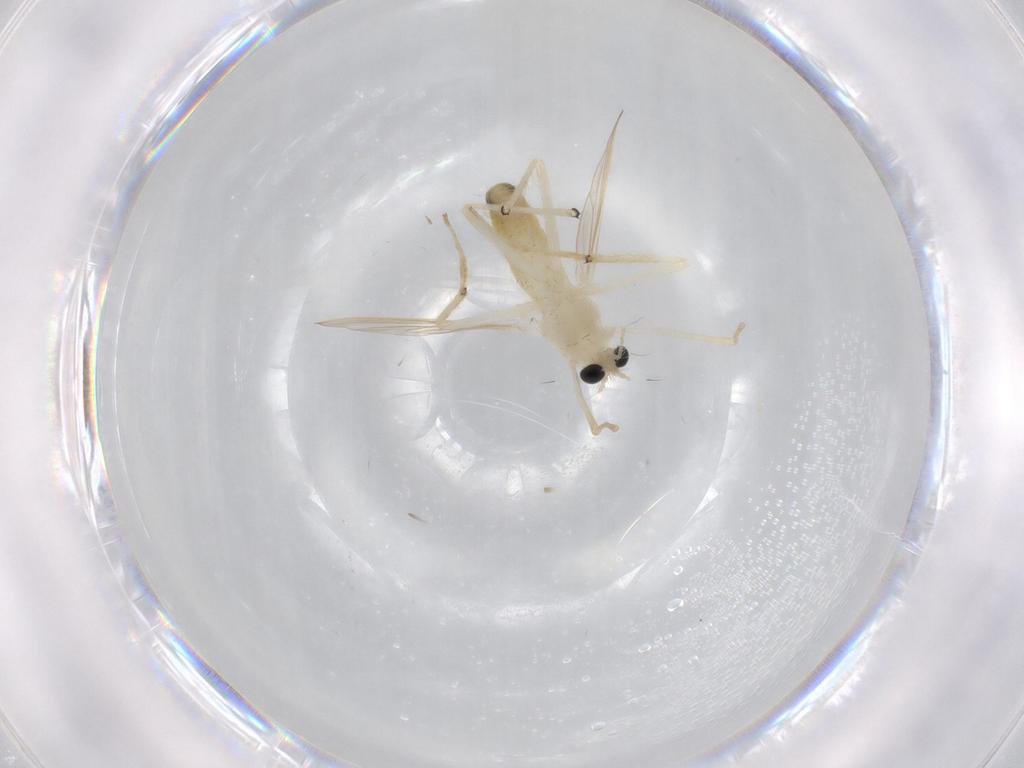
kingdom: Animalia
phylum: Arthropoda
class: Insecta
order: Diptera
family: Chironomidae
